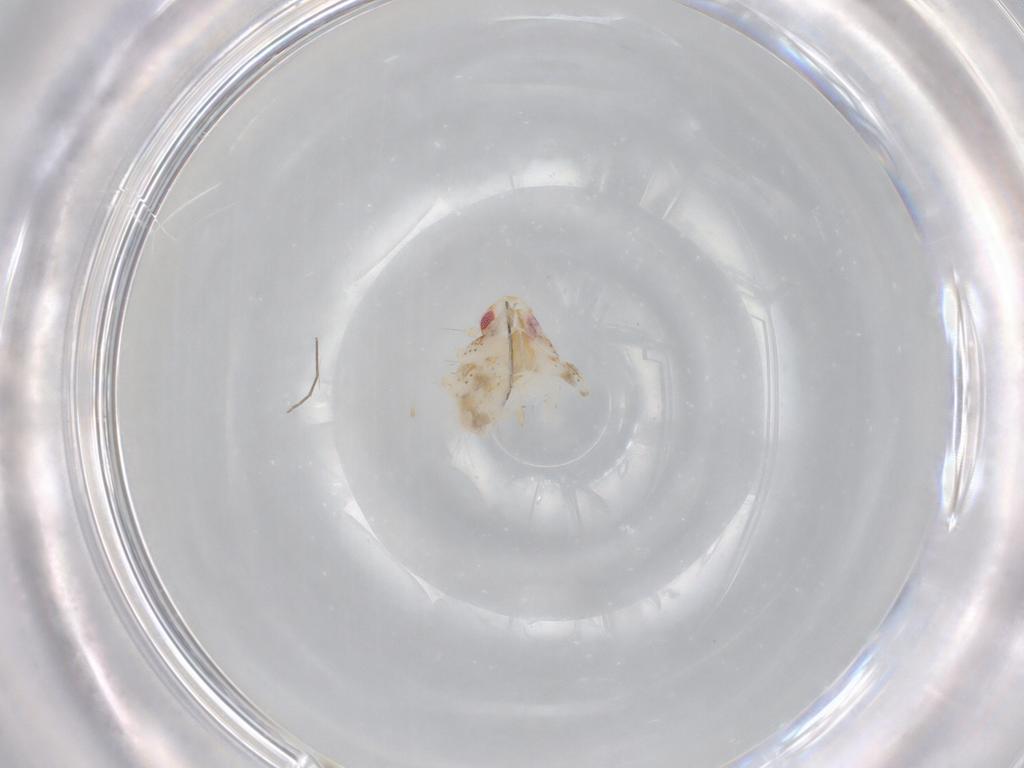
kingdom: Animalia
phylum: Arthropoda
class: Insecta
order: Hemiptera
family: Flatidae
